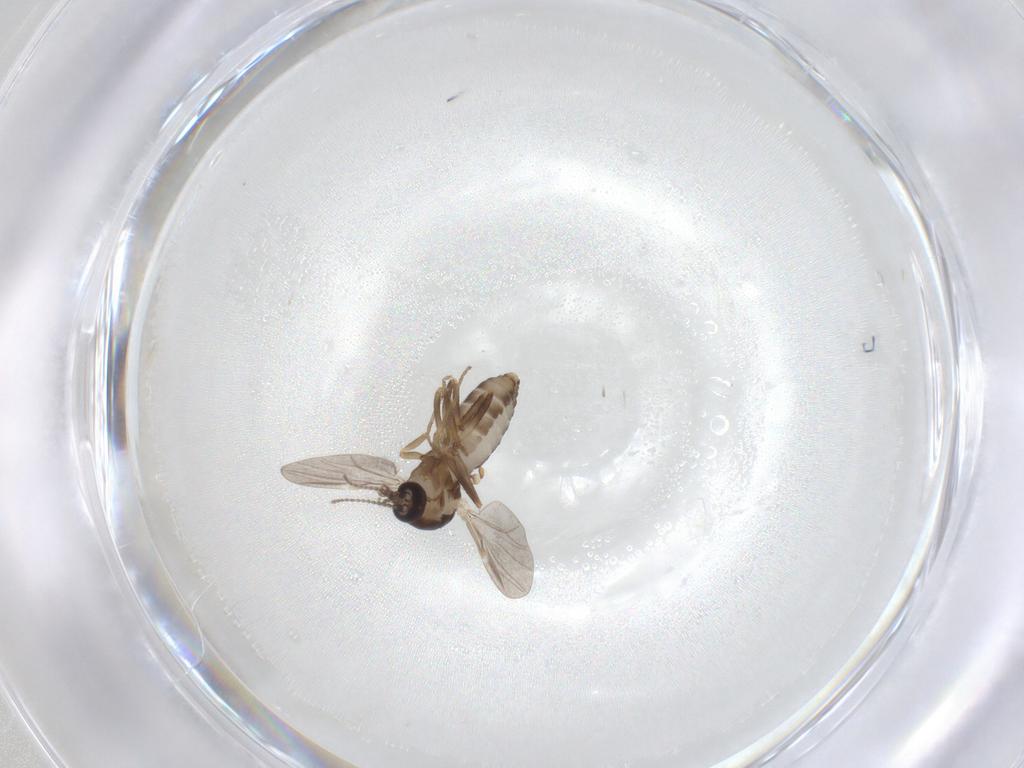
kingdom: Animalia
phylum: Arthropoda
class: Insecta
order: Diptera
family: Ceratopogonidae
